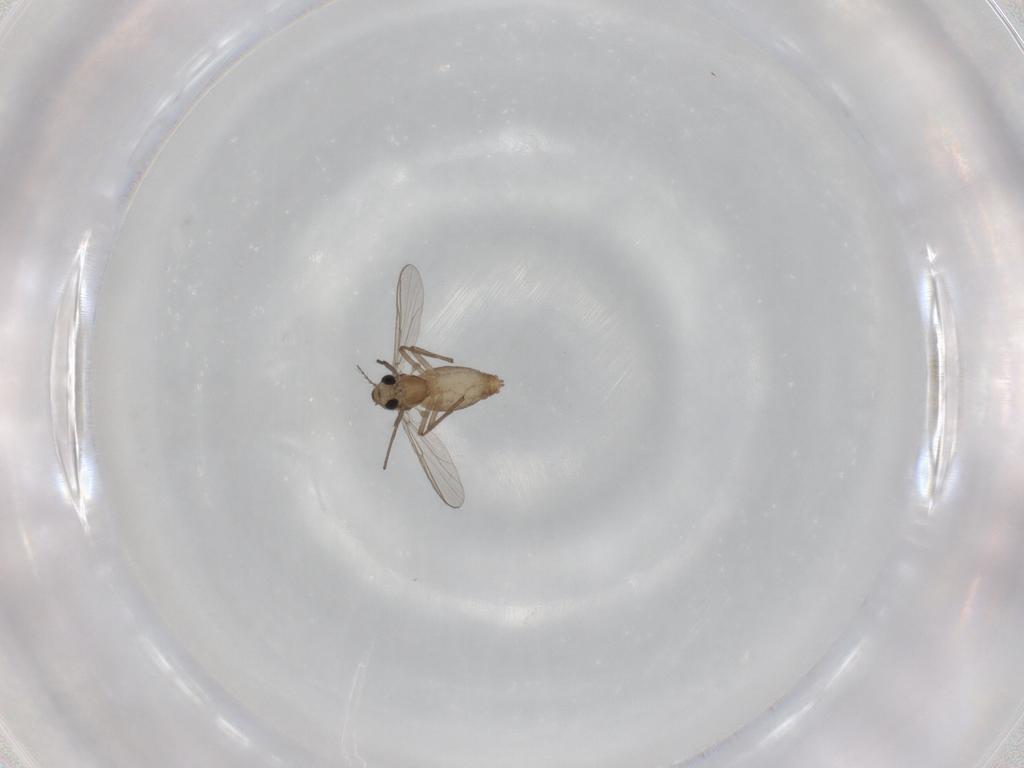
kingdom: Animalia
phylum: Arthropoda
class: Insecta
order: Diptera
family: Chironomidae
